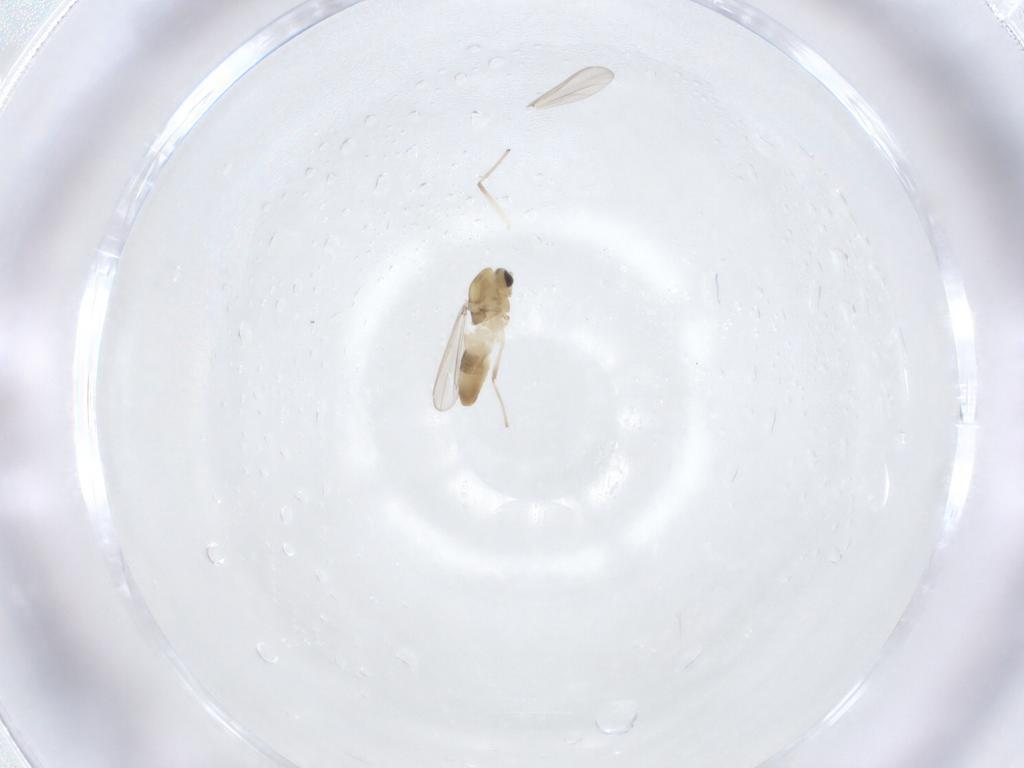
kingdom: Animalia
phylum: Arthropoda
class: Insecta
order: Diptera
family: Chironomidae
